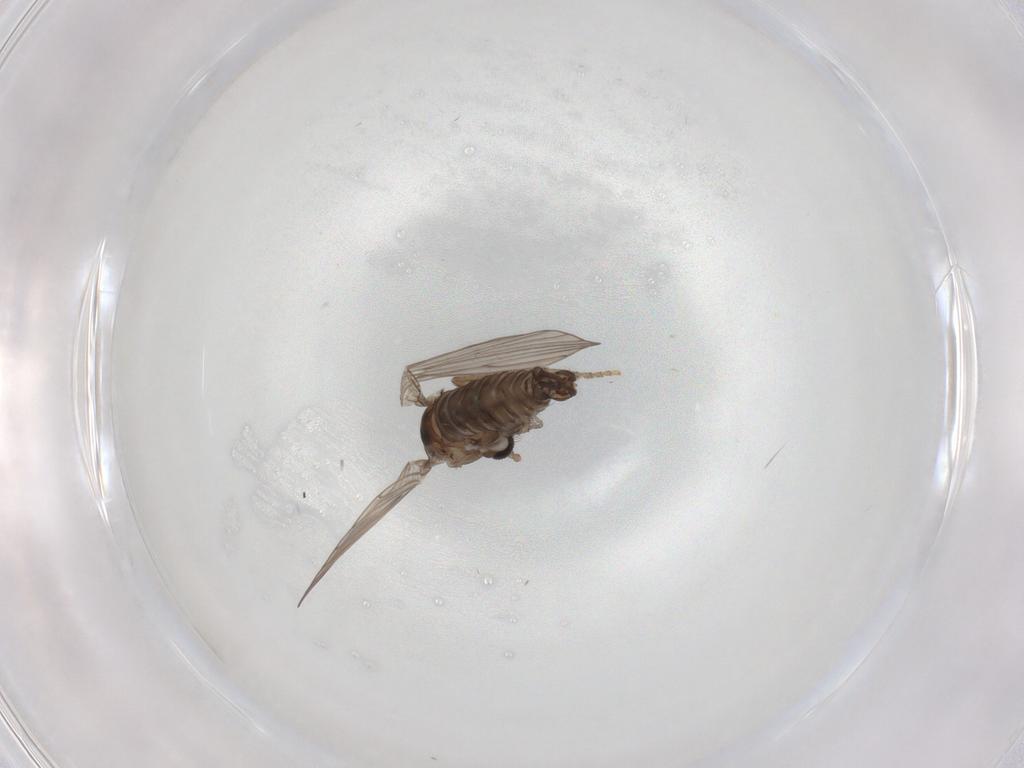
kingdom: Animalia
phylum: Arthropoda
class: Insecta
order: Diptera
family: Psychodidae
